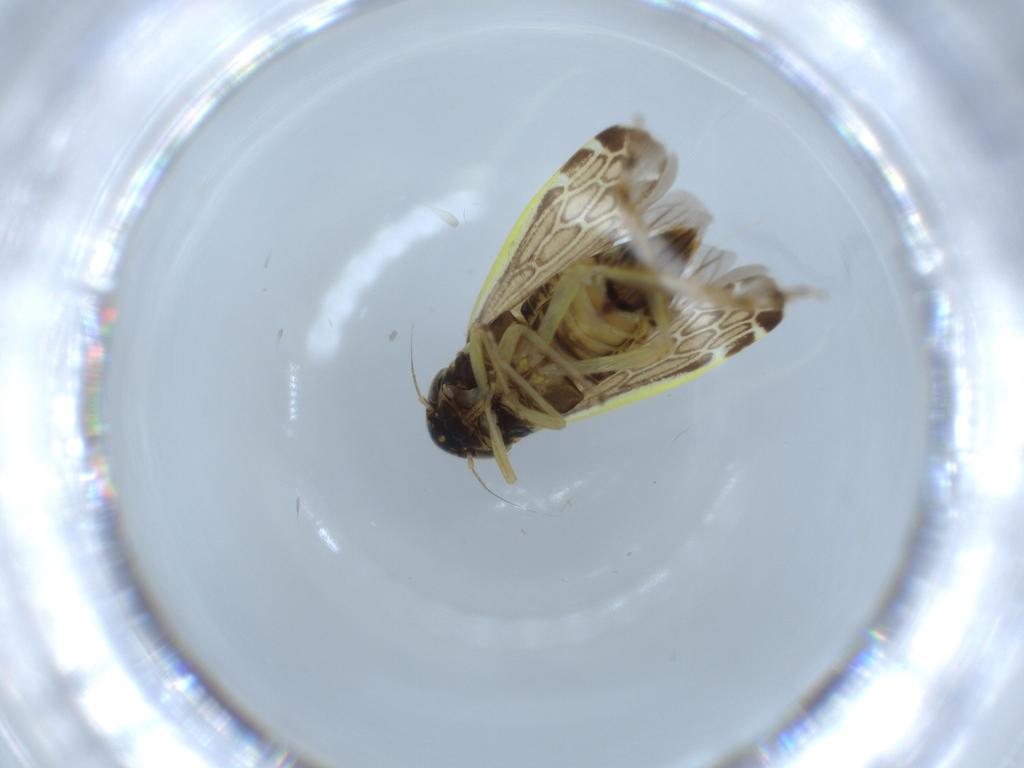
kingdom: Animalia
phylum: Arthropoda
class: Insecta
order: Hemiptera
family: Cicadellidae
